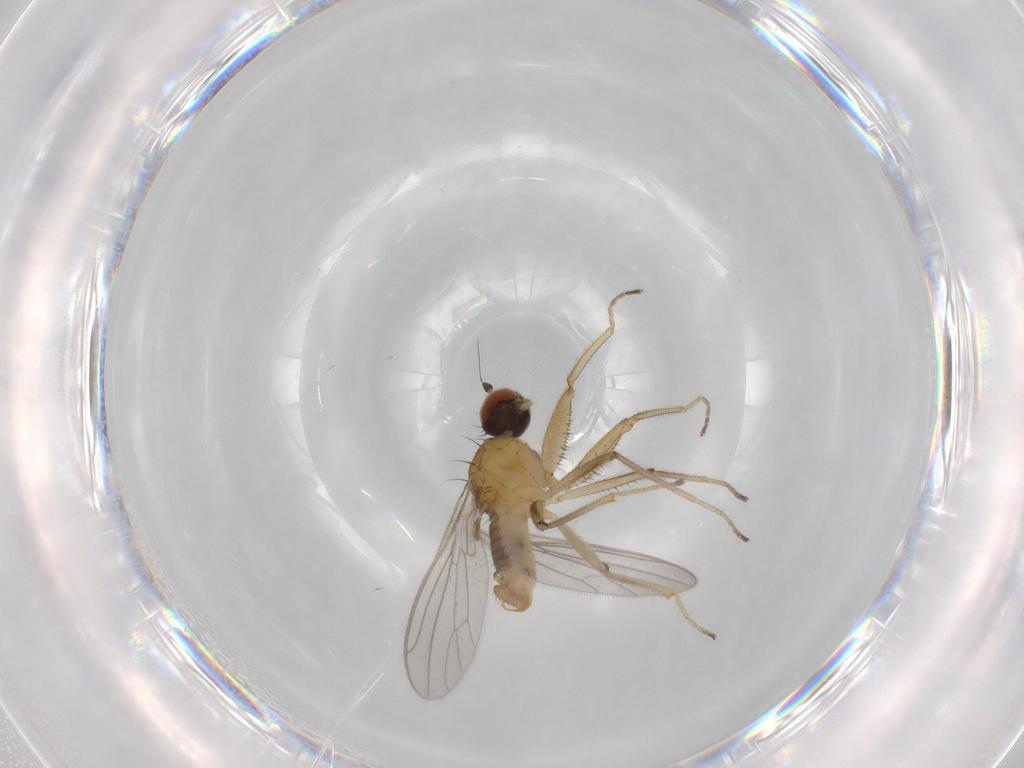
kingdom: Animalia
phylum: Arthropoda
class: Insecta
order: Diptera
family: Empididae
